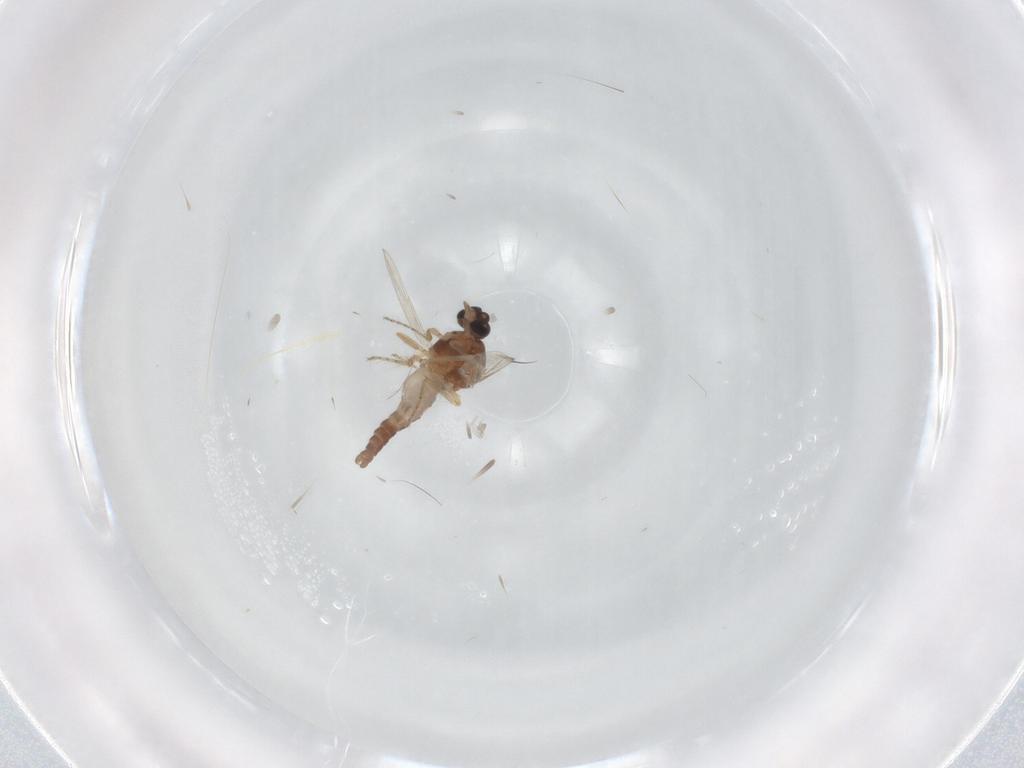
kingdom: Animalia
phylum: Arthropoda
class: Insecta
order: Diptera
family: Ceratopogonidae
